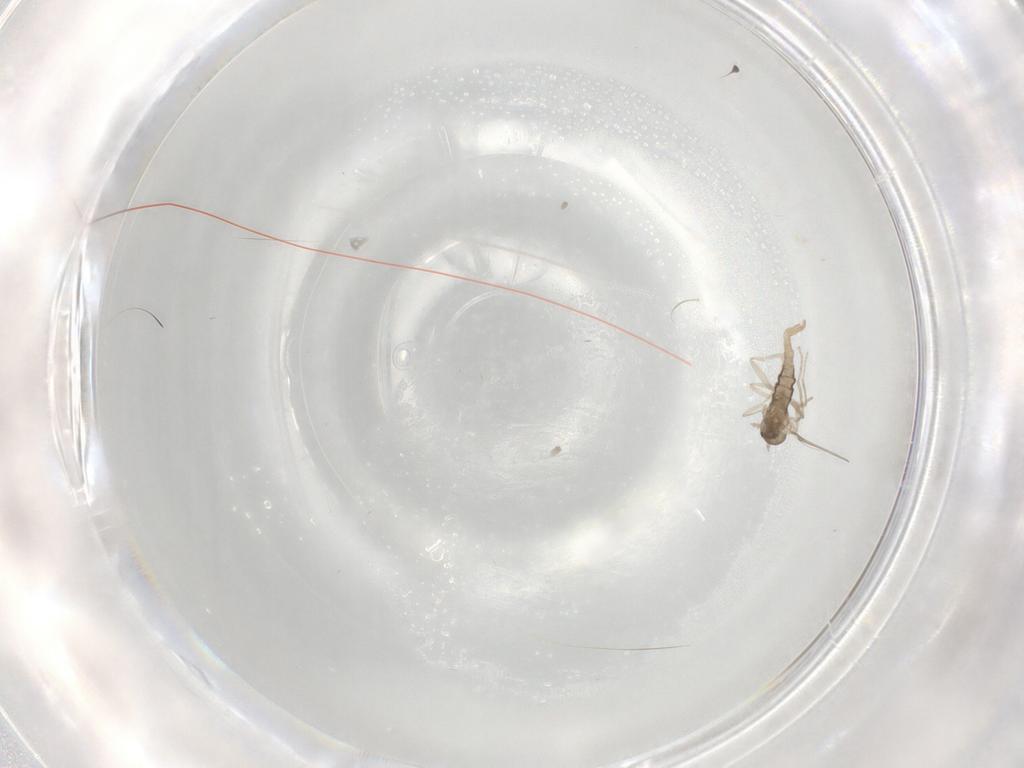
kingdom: Animalia
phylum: Arthropoda
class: Insecta
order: Diptera
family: Cecidomyiidae
